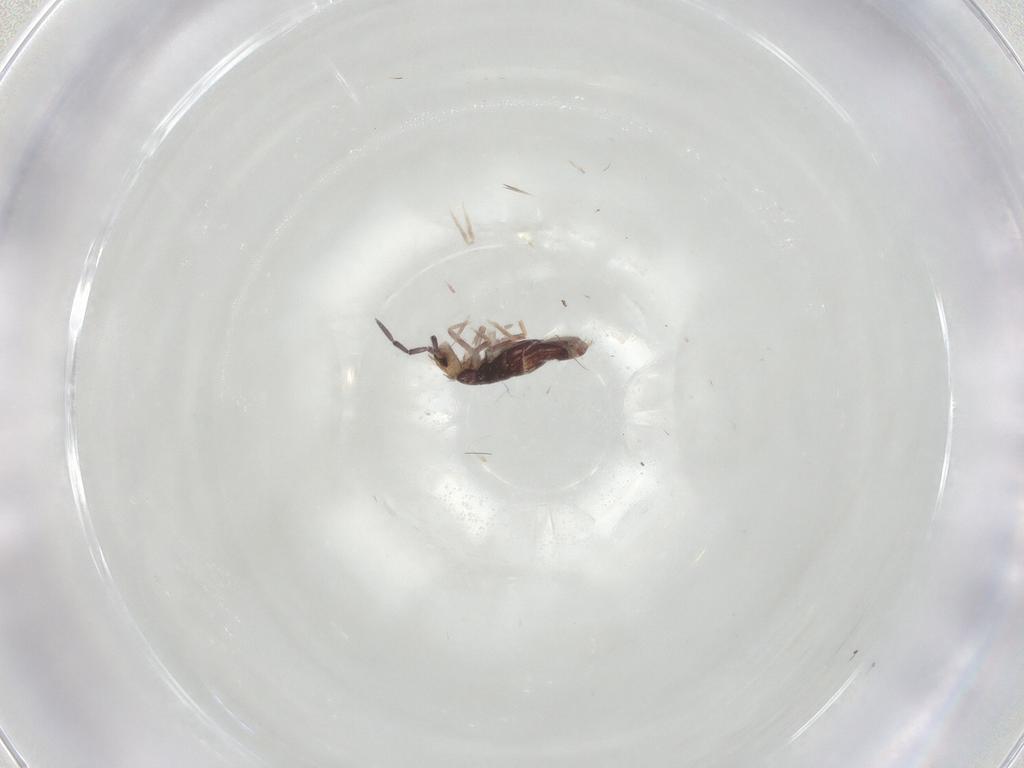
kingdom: Animalia
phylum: Arthropoda
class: Collembola
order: Entomobryomorpha
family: Entomobryidae
